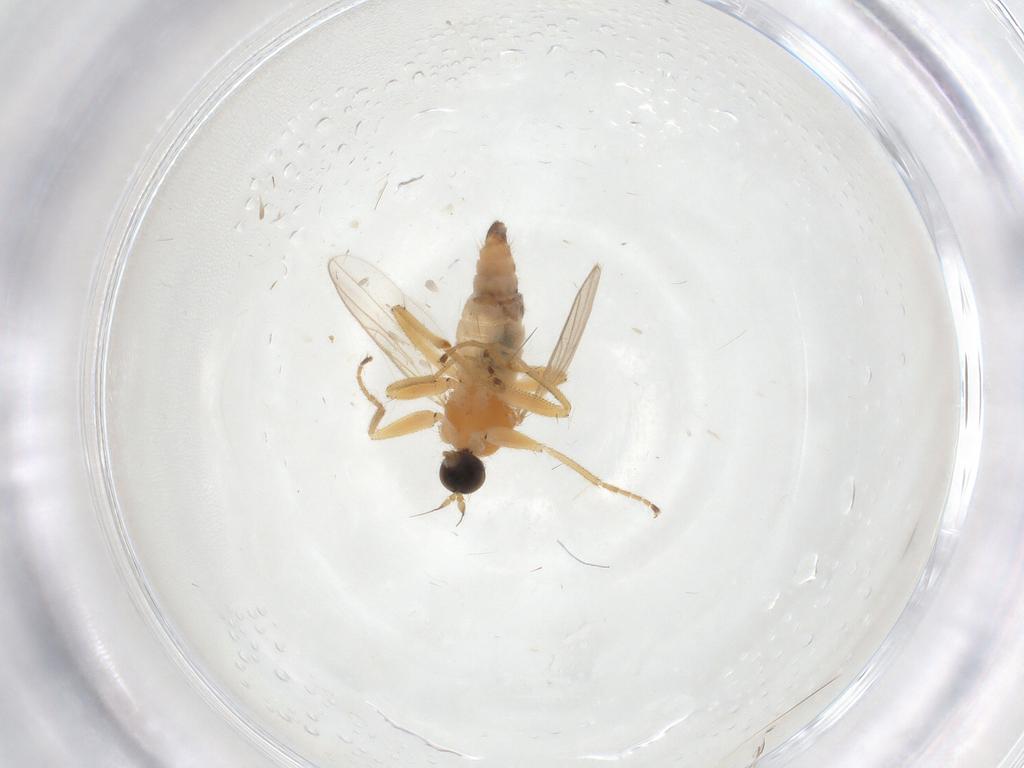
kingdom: Animalia
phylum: Arthropoda
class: Insecta
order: Diptera
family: Hybotidae
